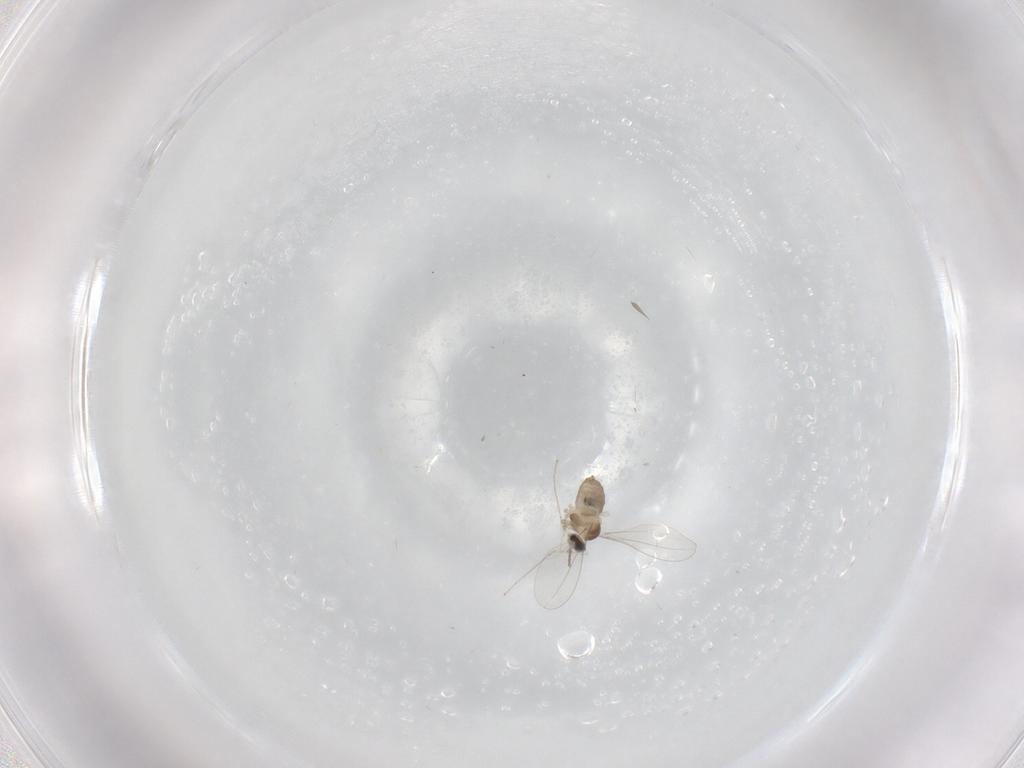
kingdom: Animalia
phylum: Arthropoda
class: Insecta
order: Diptera
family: Cecidomyiidae
